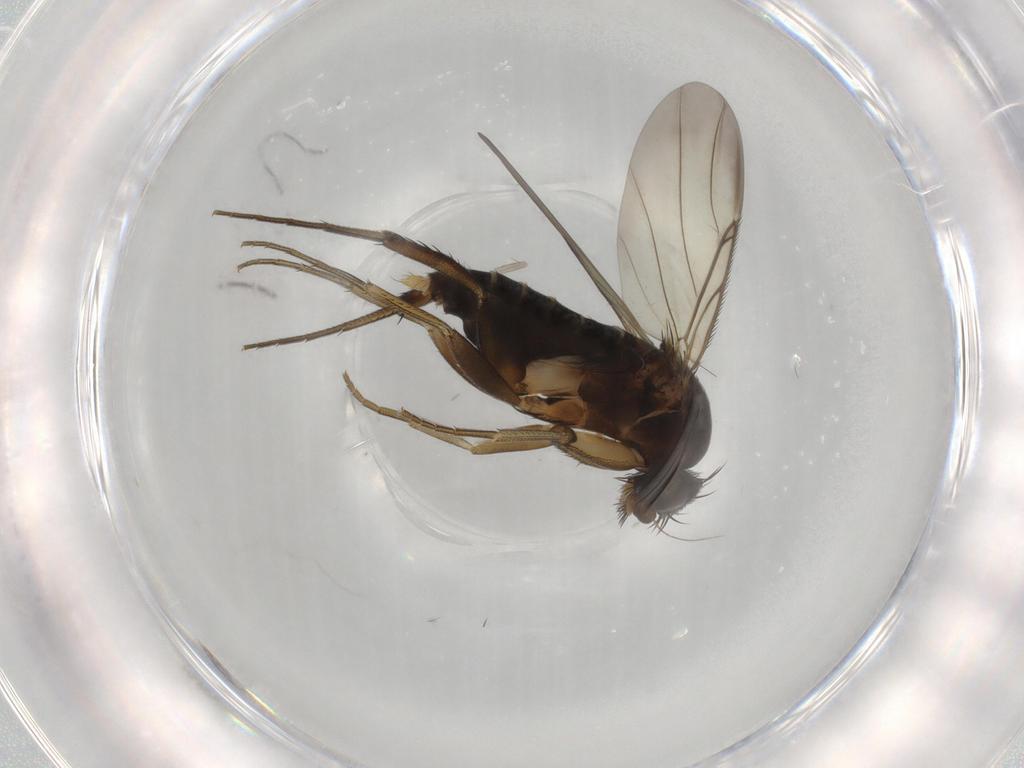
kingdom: Animalia
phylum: Arthropoda
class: Insecta
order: Diptera
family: Phoridae
